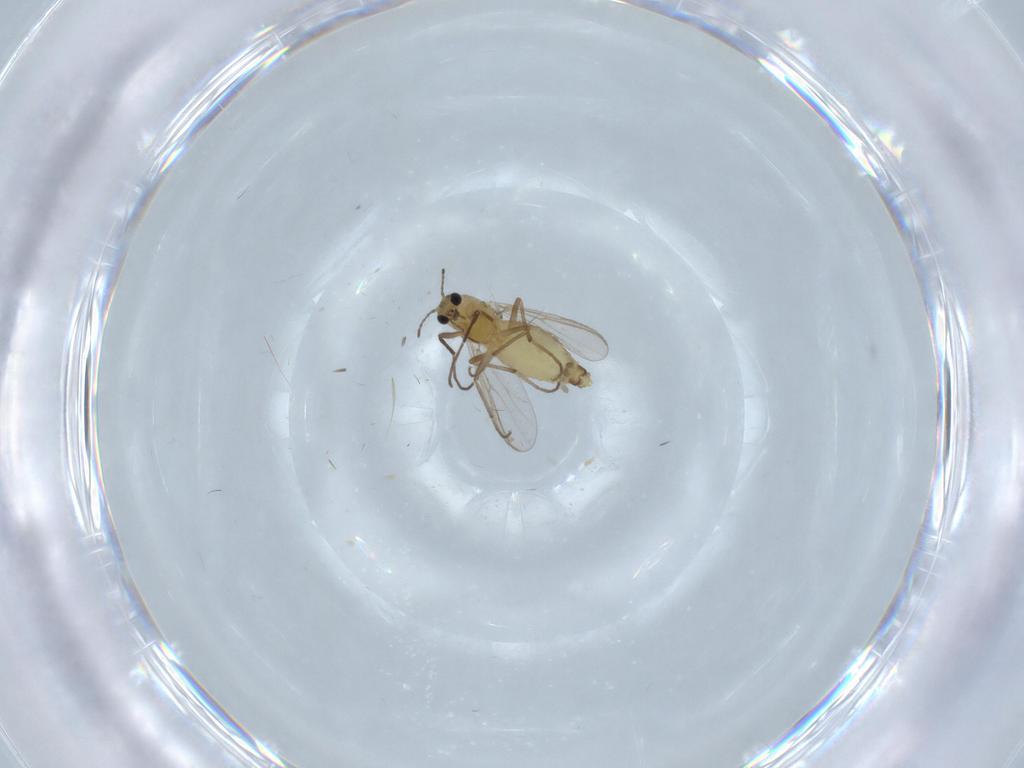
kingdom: Animalia
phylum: Arthropoda
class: Insecta
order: Diptera
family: Chironomidae
